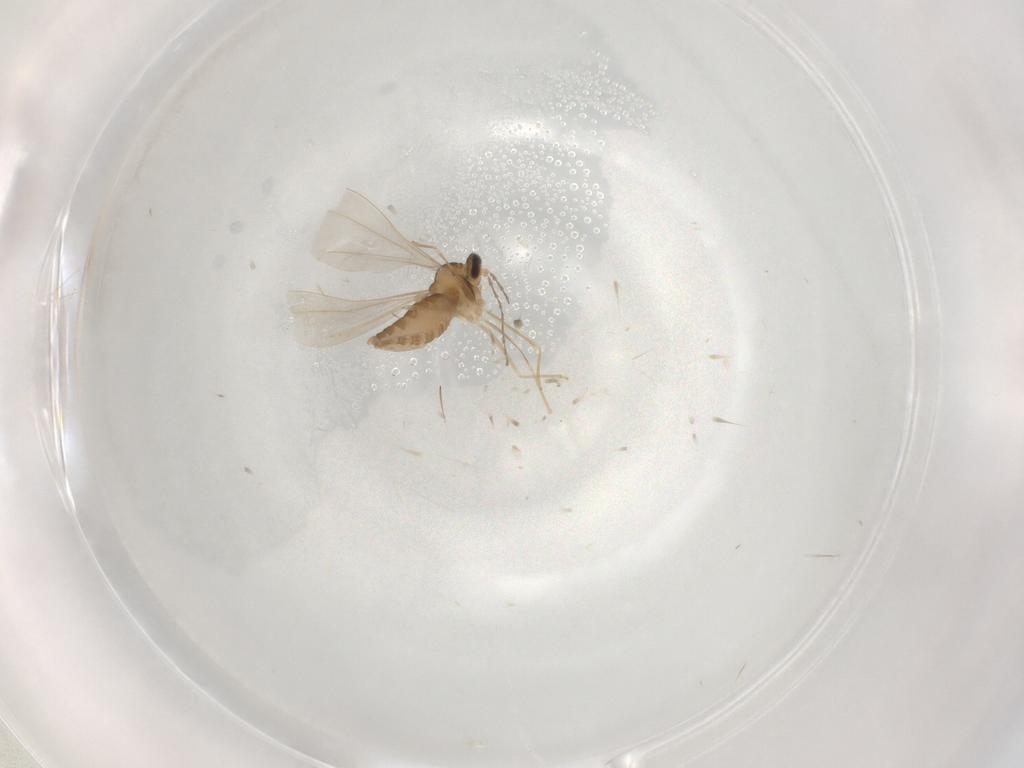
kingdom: Animalia
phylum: Arthropoda
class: Insecta
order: Diptera
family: Cecidomyiidae
